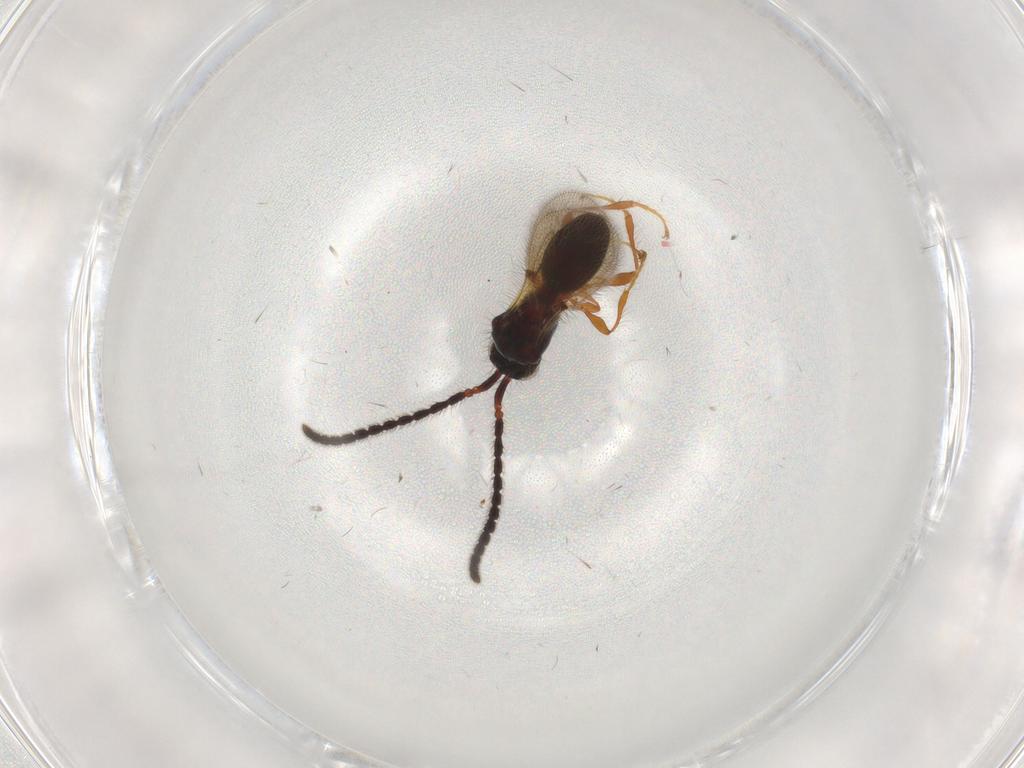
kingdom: Animalia
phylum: Arthropoda
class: Insecta
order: Hymenoptera
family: Diapriidae
